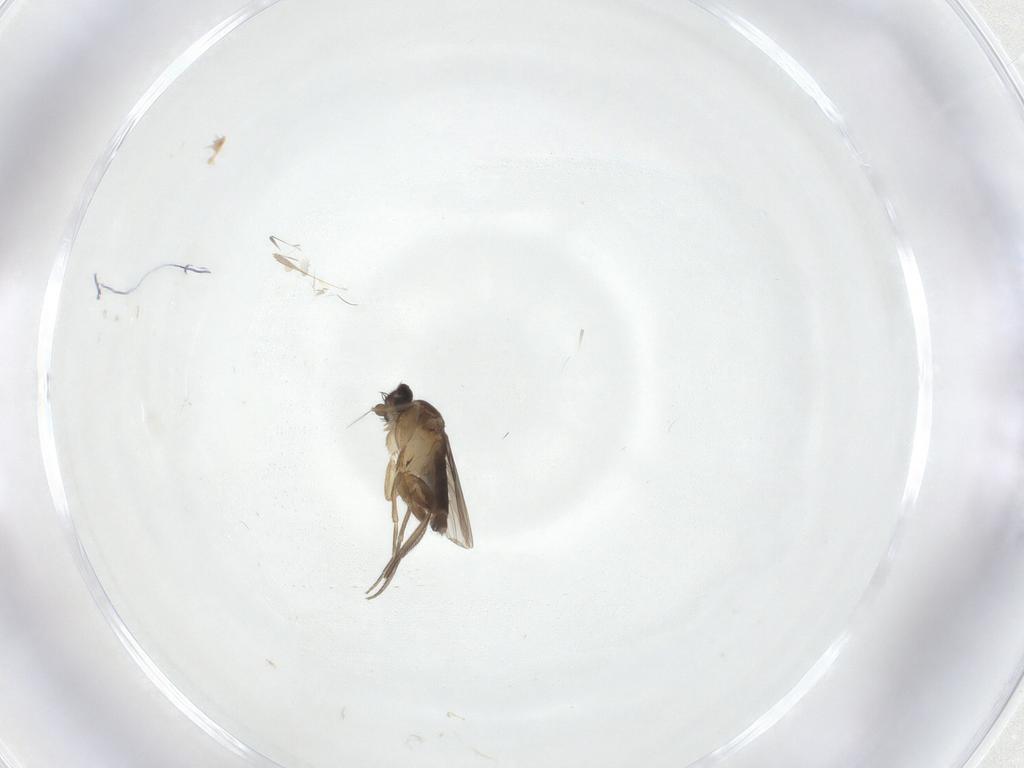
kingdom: Animalia
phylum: Arthropoda
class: Insecta
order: Diptera
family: Phoridae
